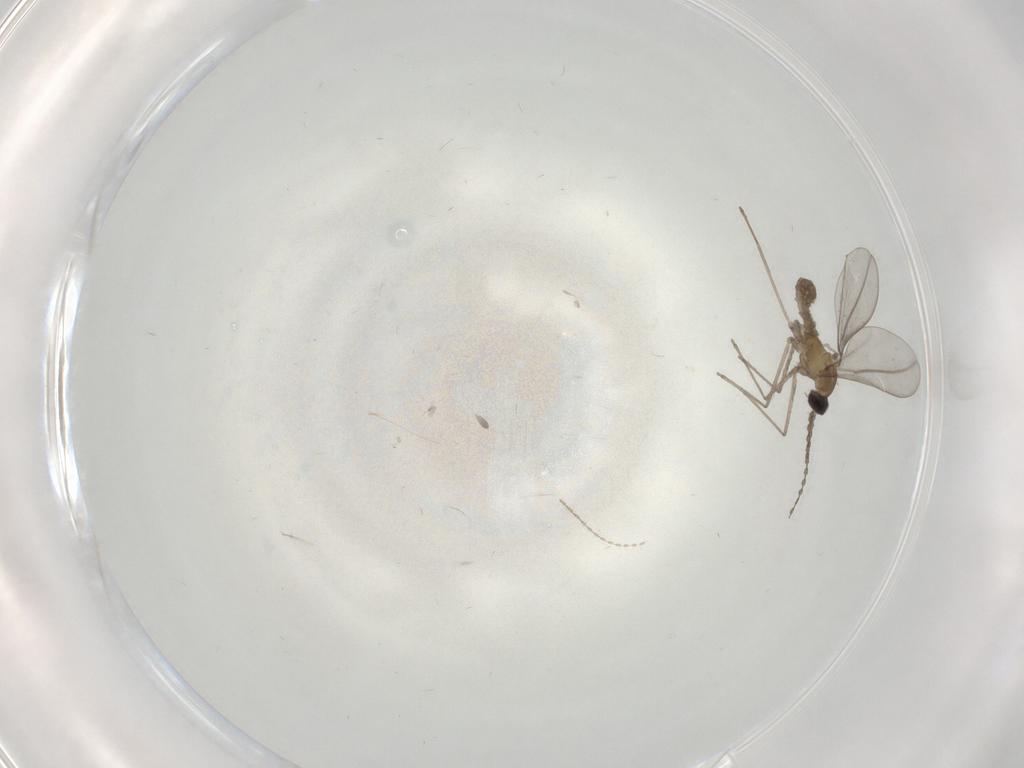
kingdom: Animalia
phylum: Arthropoda
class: Insecta
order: Diptera
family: Cecidomyiidae
